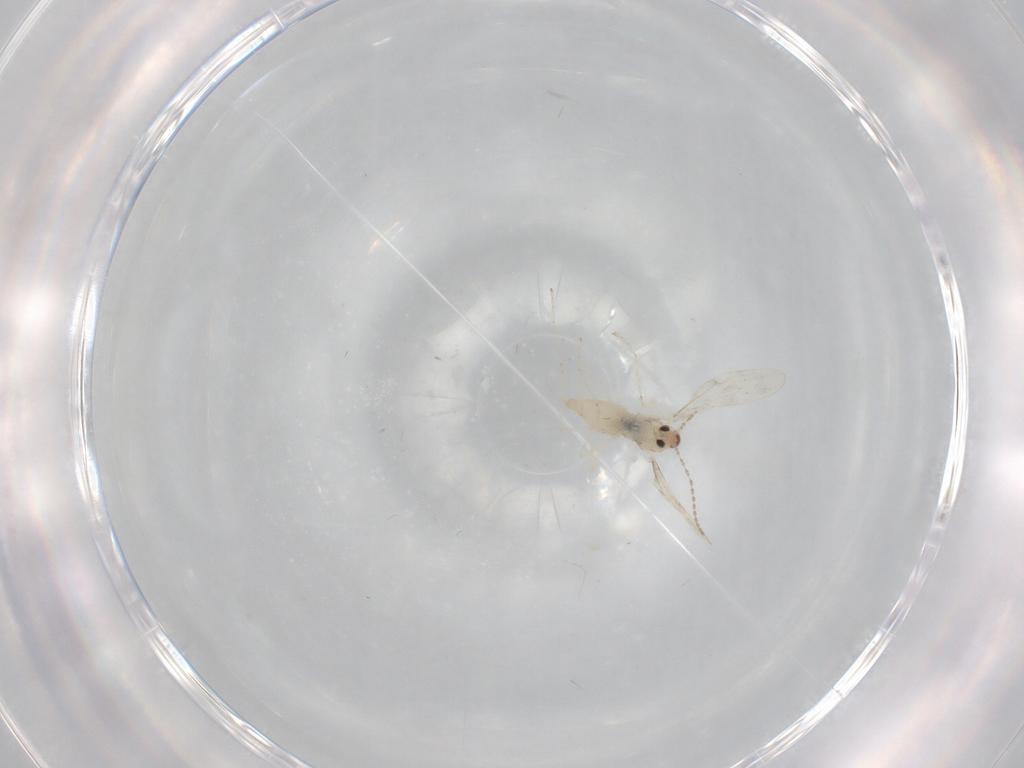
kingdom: Animalia
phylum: Arthropoda
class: Insecta
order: Diptera
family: Cecidomyiidae
